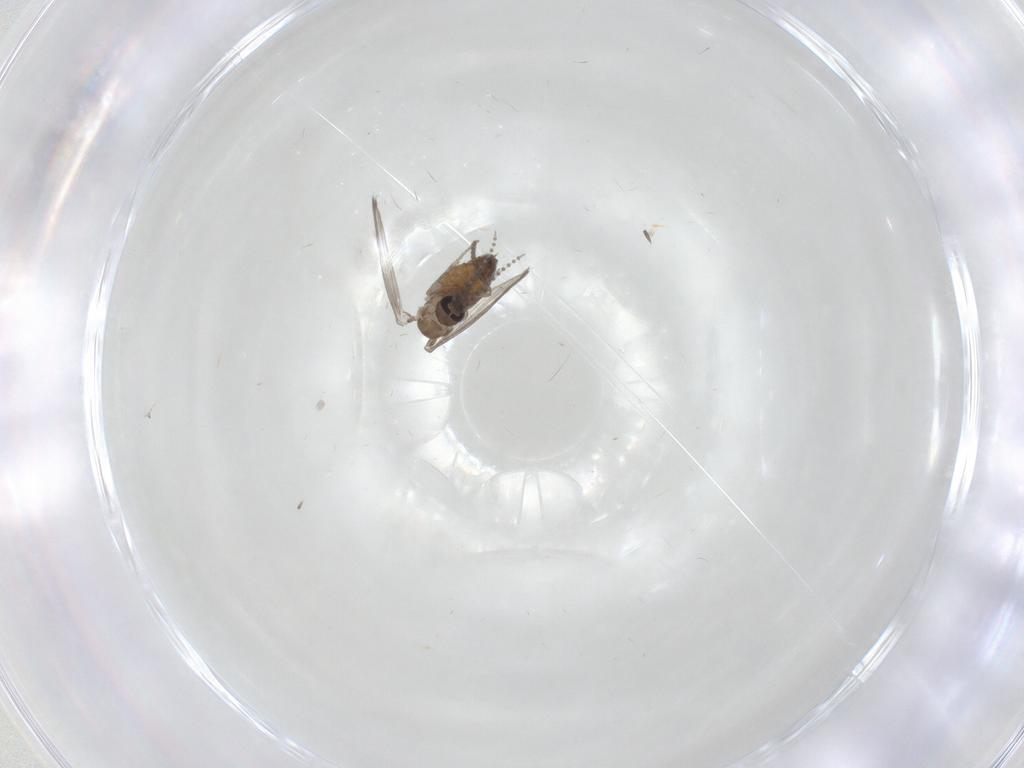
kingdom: Animalia
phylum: Arthropoda
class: Insecta
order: Diptera
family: Psychodidae
